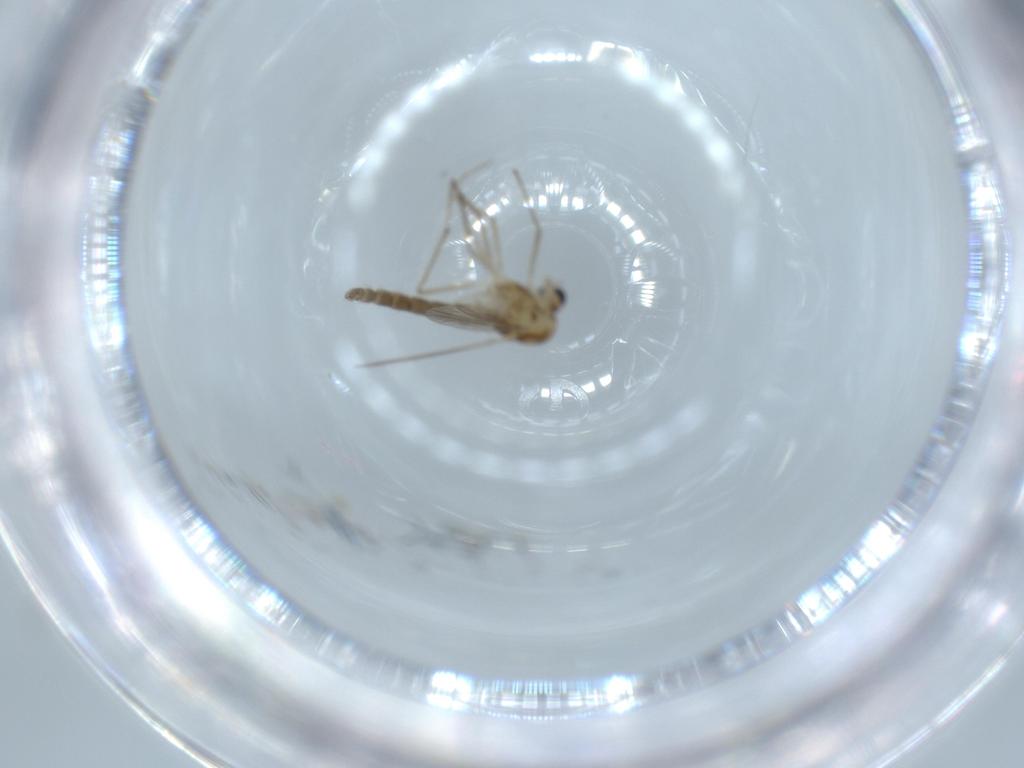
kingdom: Animalia
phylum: Arthropoda
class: Insecta
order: Diptera
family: Chironomidae
